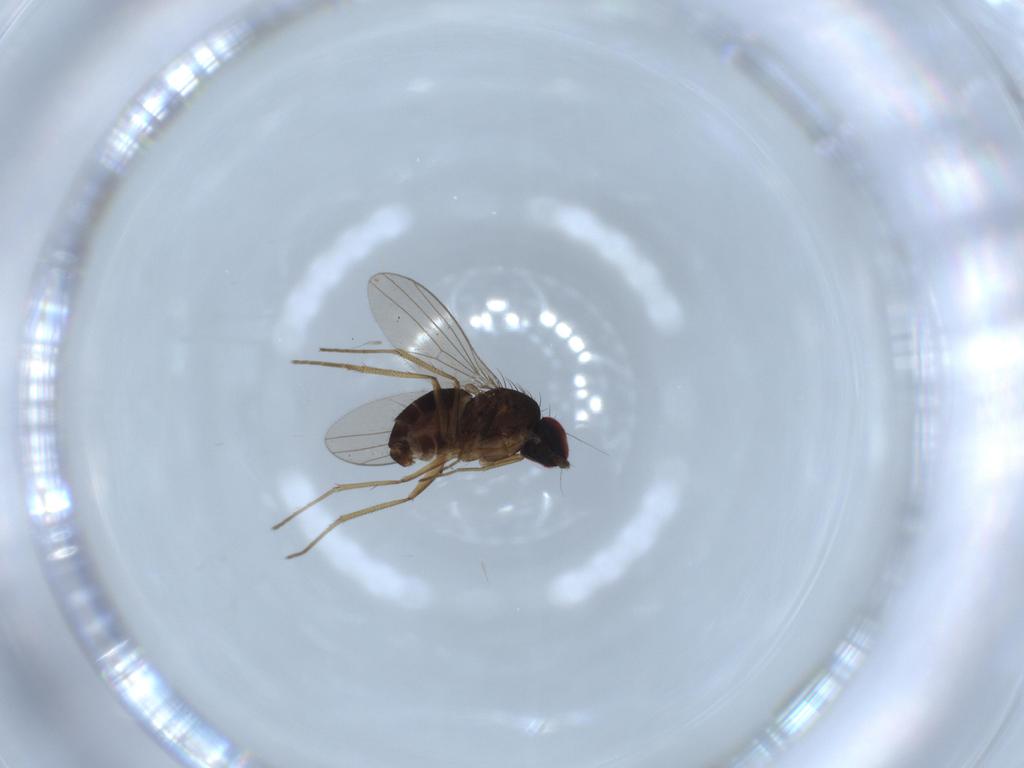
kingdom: Animalia
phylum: Arthropoda
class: Insecta
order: Diptera
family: Dolichopodidae
